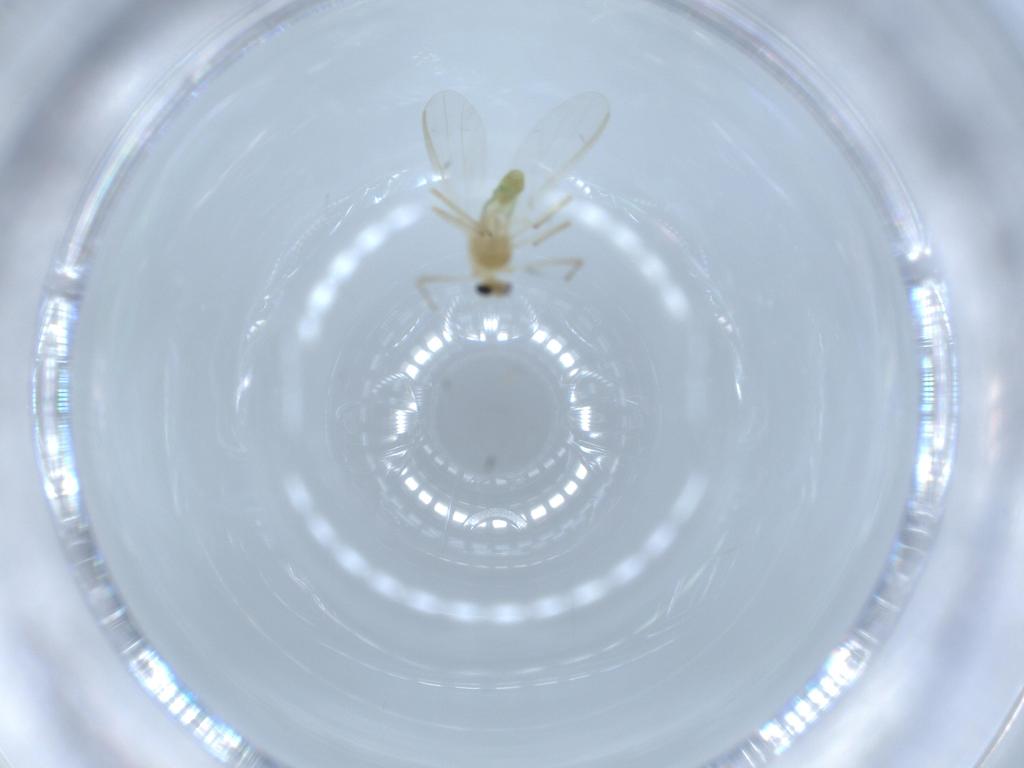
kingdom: Animalia
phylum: Arthropoda
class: Insecta
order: Diptera
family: Chironomidae
